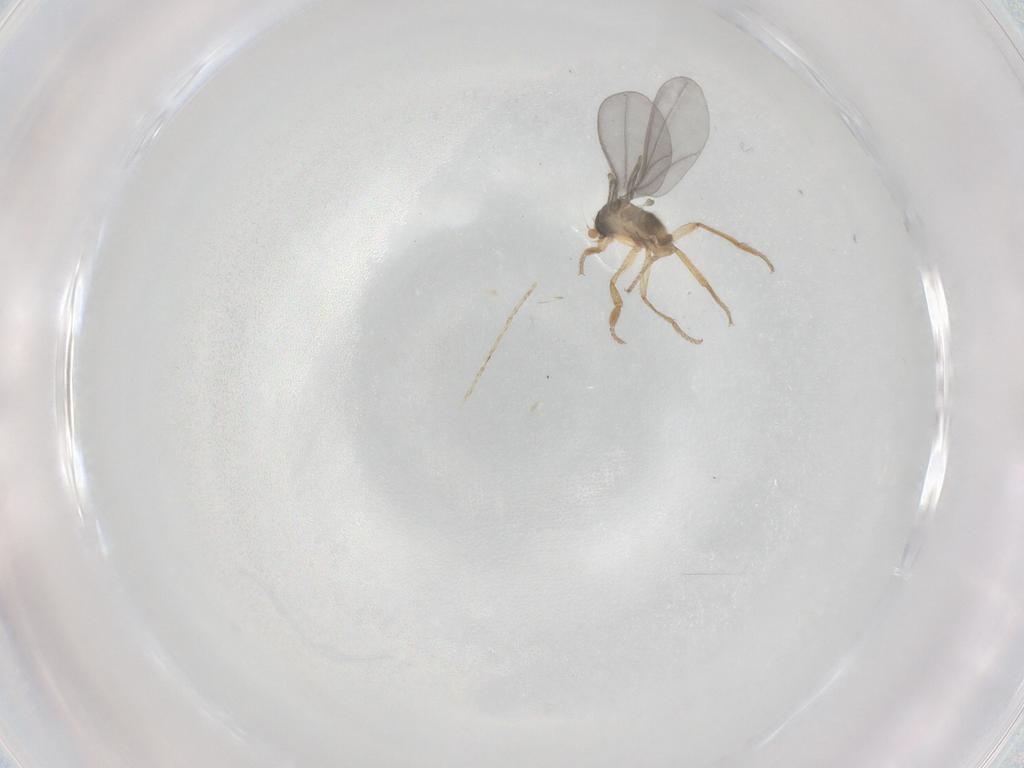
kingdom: Animalia
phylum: Arthropoda
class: Insecta
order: Diptera
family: Phoridae
